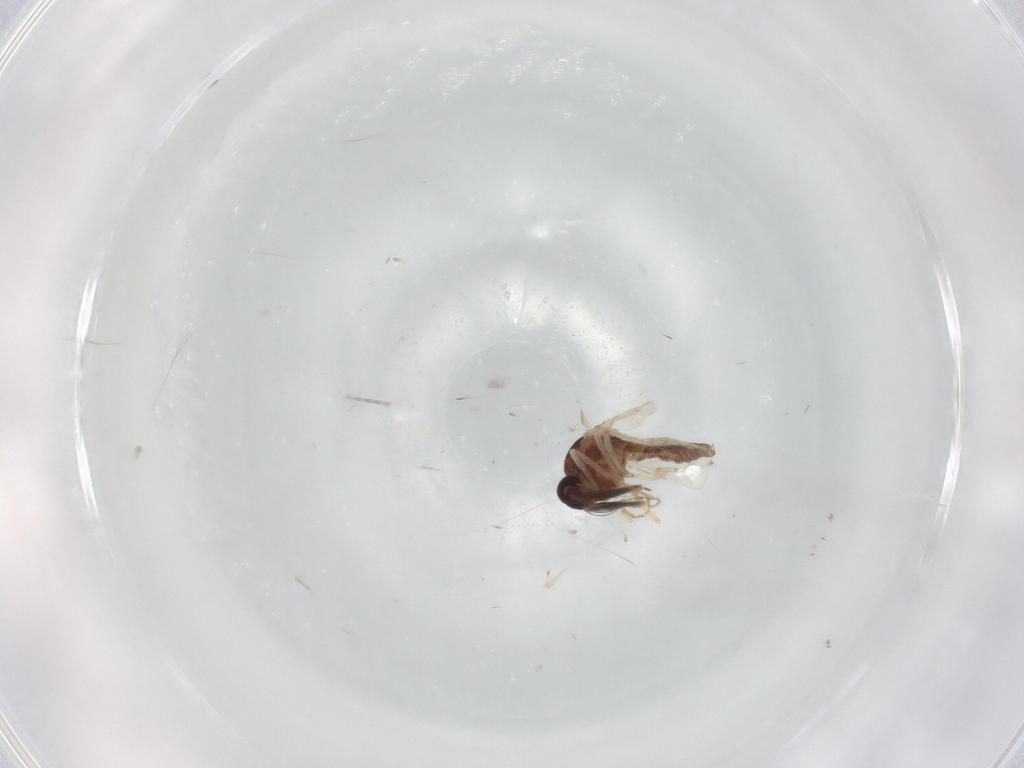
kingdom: Animalia
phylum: Arthropoda
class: Insecta
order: Diptera
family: Ceratopogonidae
